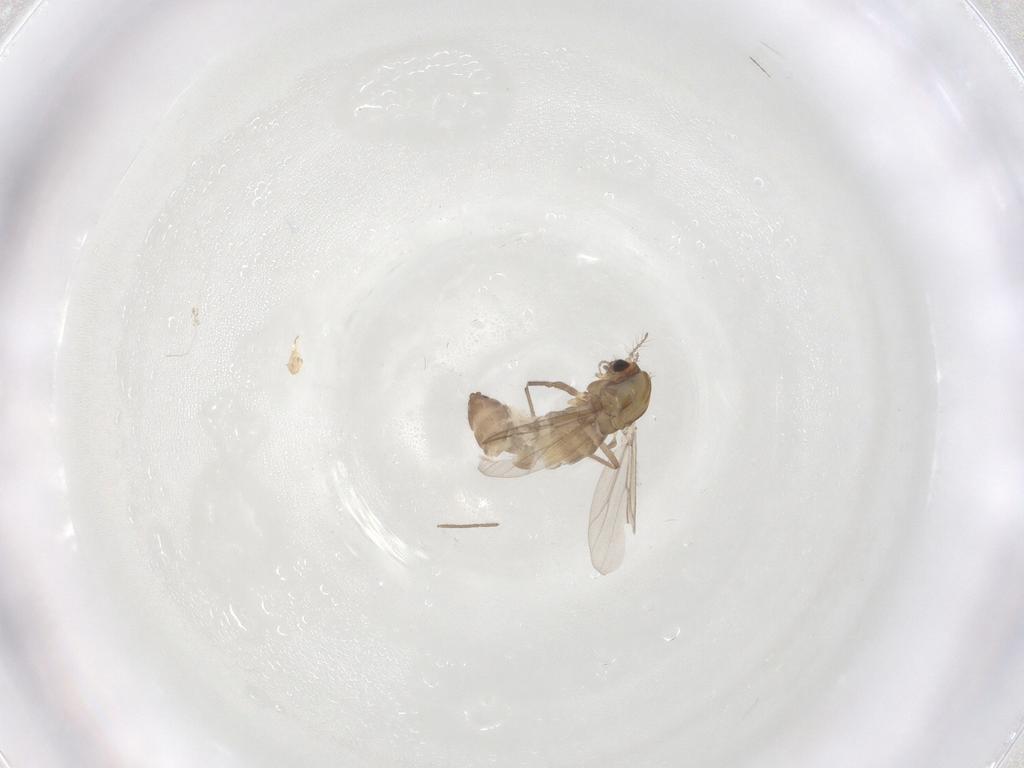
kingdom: Animalia
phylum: Arthropoda
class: Insecta
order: Diptera
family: Chironomidae
